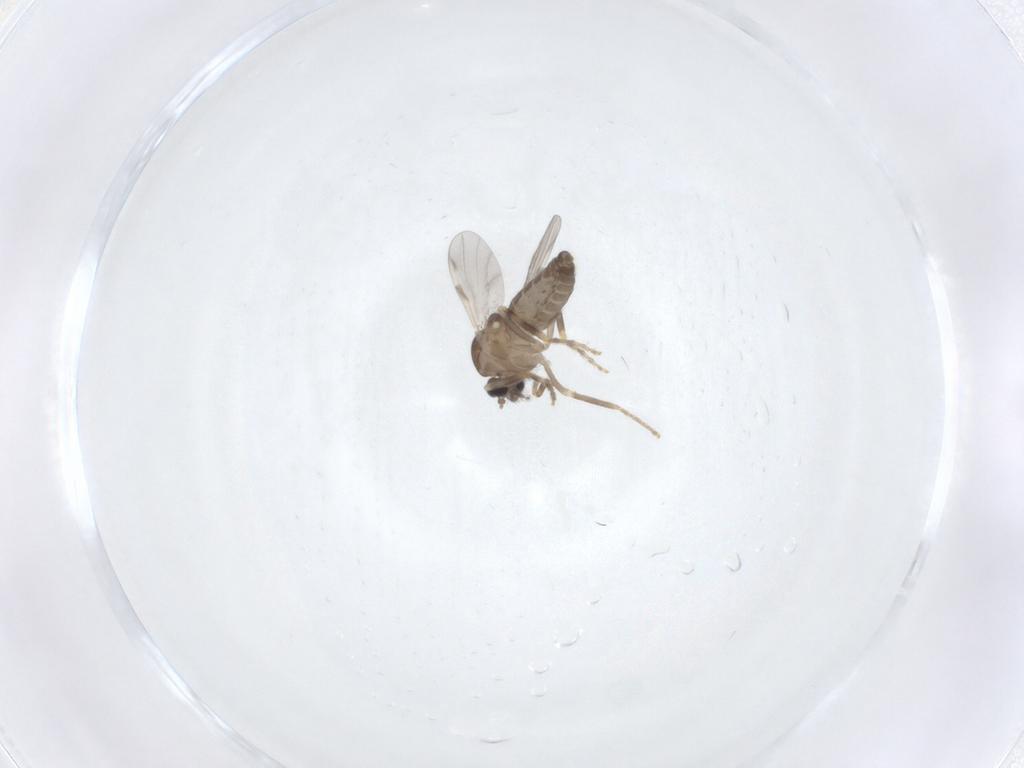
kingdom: Animalia
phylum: Arthropoda
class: Insecta
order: Diptera
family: Ceratopogonidae
